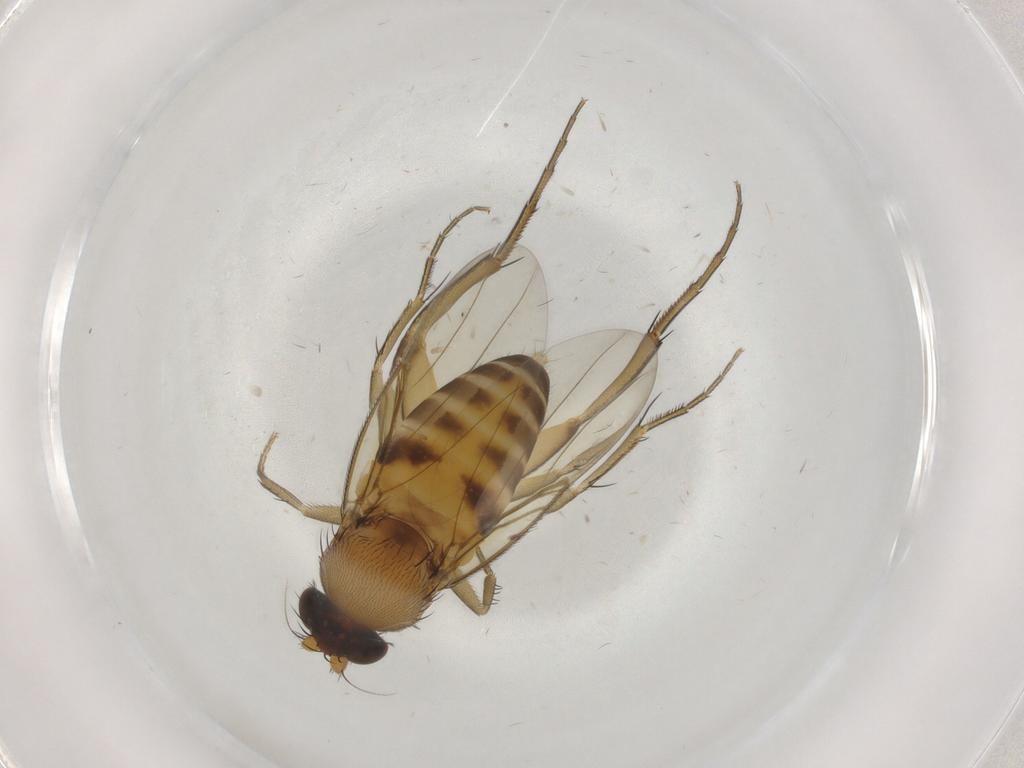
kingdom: Animalia
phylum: Arthropoda
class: Insecta
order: Diptera
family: Phoridae
